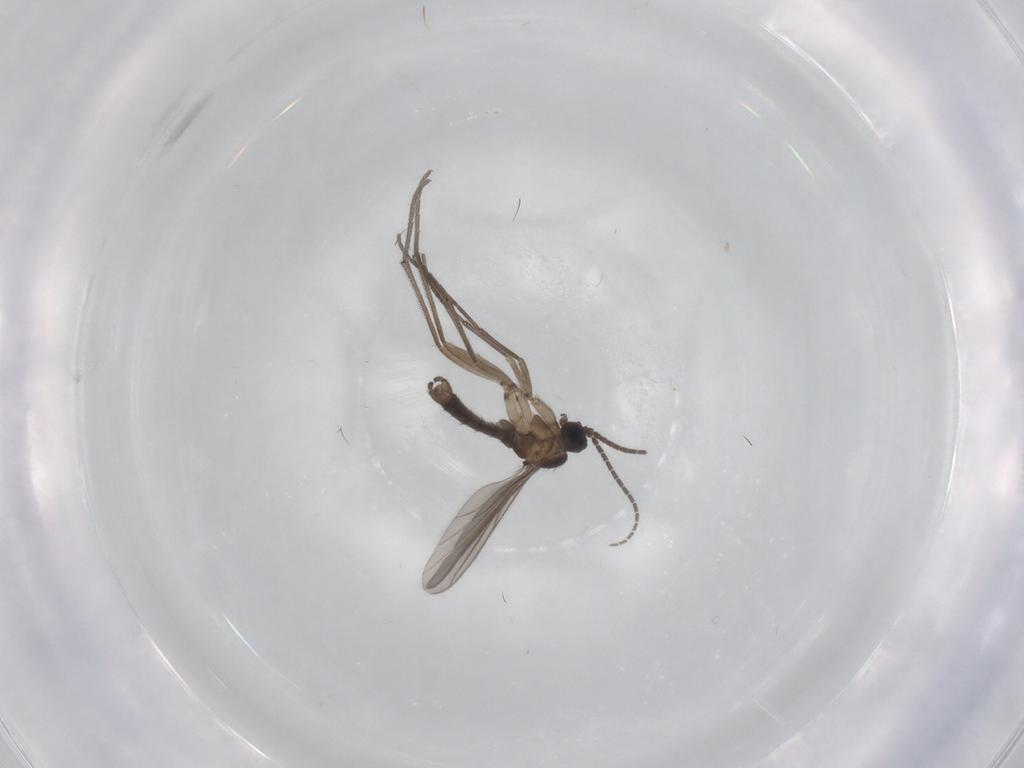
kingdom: Animalia
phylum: Arthropoda
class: Insecta
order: Diptera
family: Sciaridae
